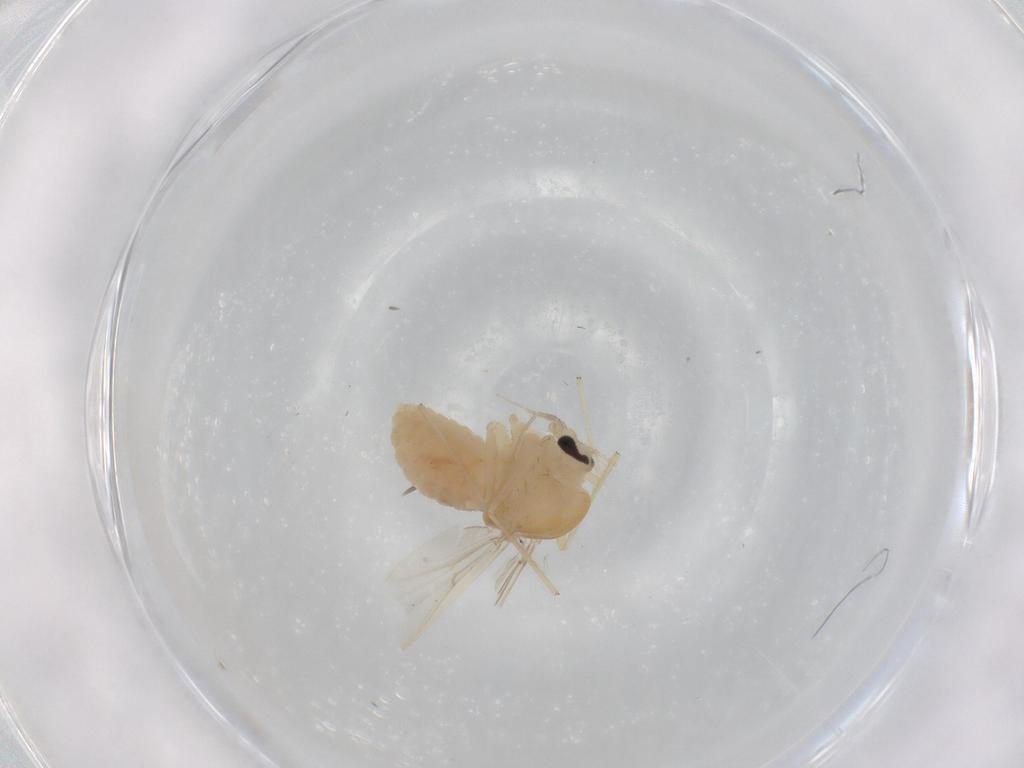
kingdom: Animalia
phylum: Arthropoda
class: Insecta
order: Diptera
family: Chironomidae
